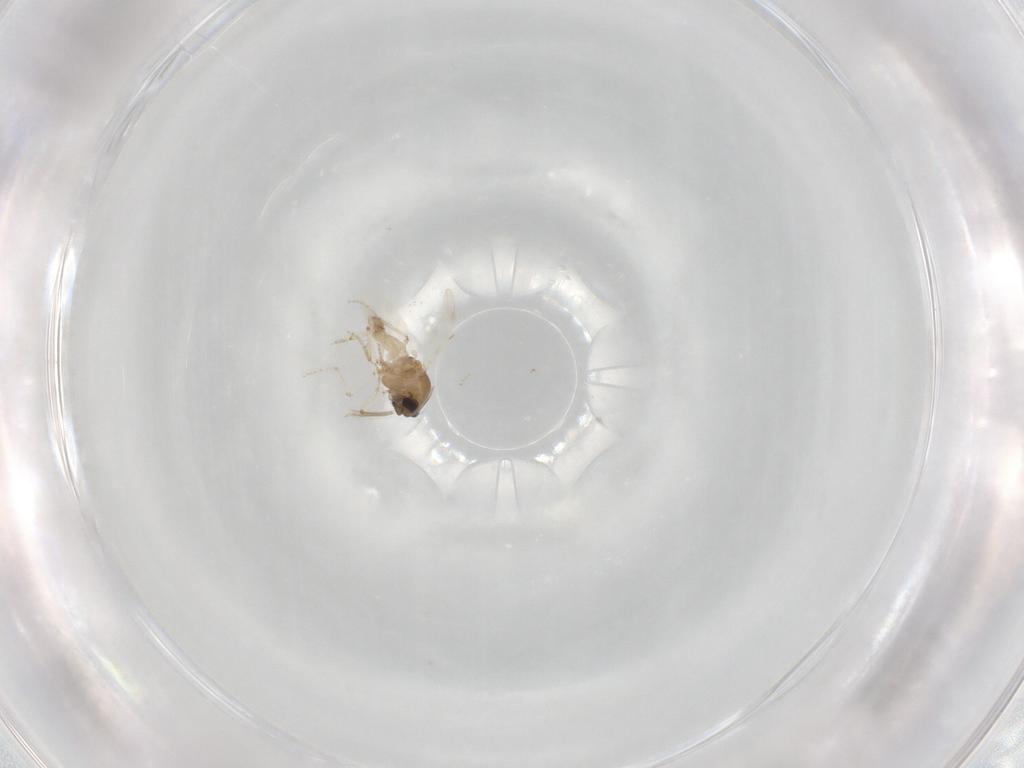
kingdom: Animalia
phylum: Arthropoda
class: Insecta
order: Diptera
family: Ceratopogonidae
